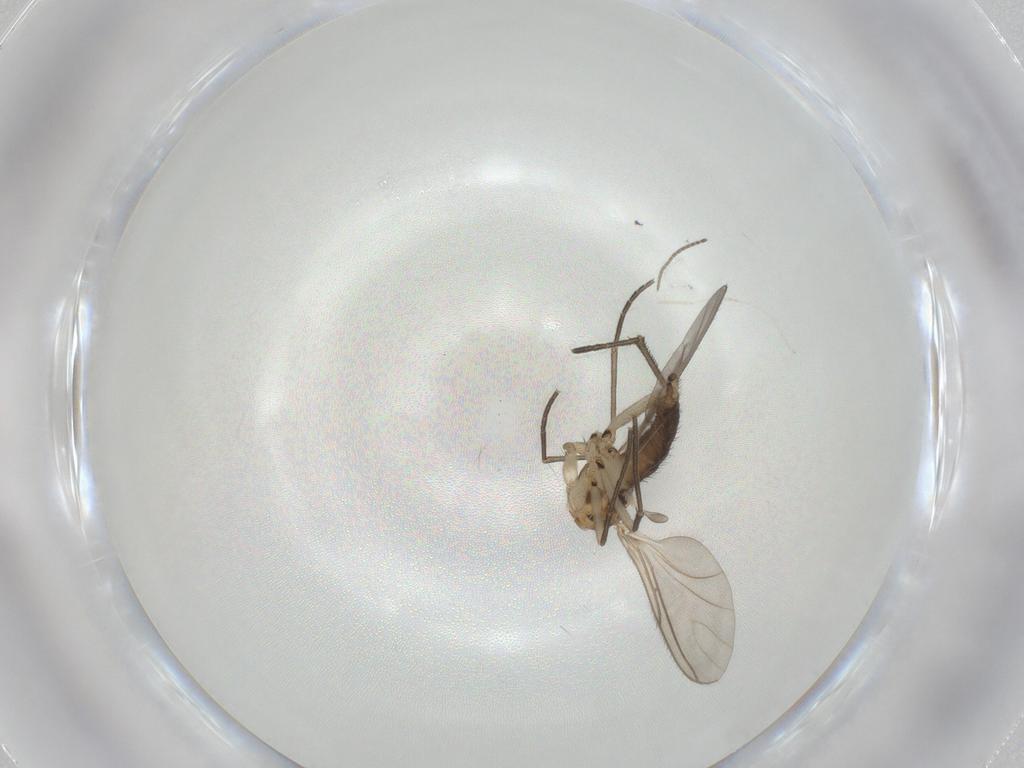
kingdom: Animalia
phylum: Arthropoda
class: Insecta
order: Diptera
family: Sciaridae
